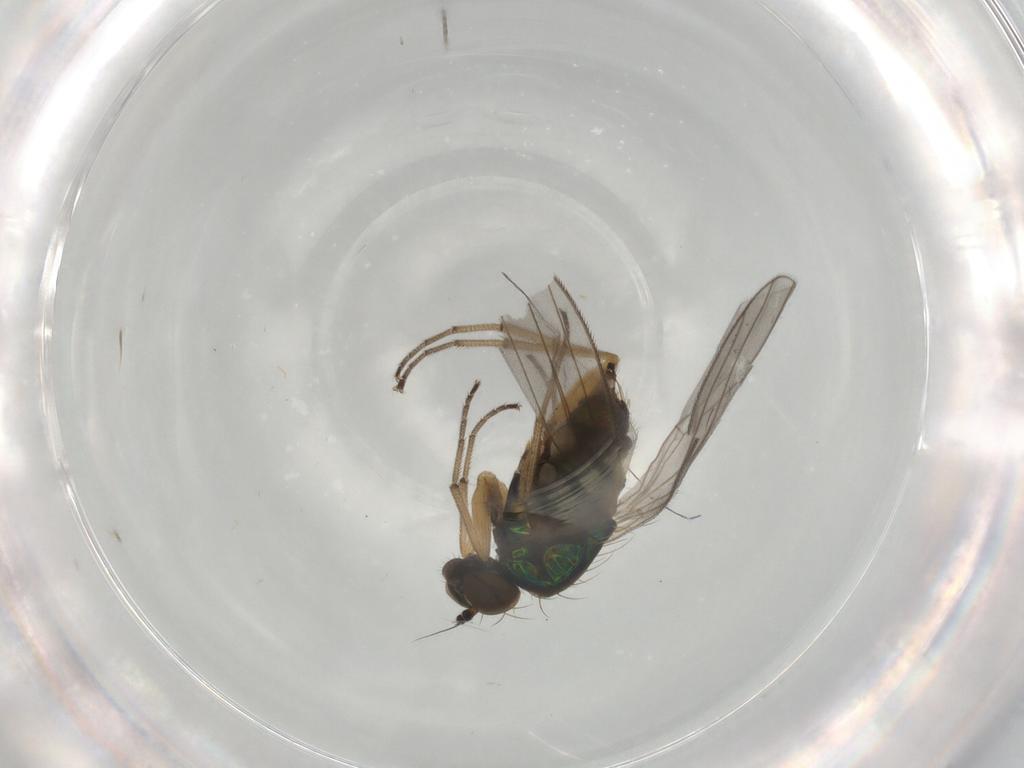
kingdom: Animalia
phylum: Arthropoda
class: Insecta
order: Diptera
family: Dolichopodidae
